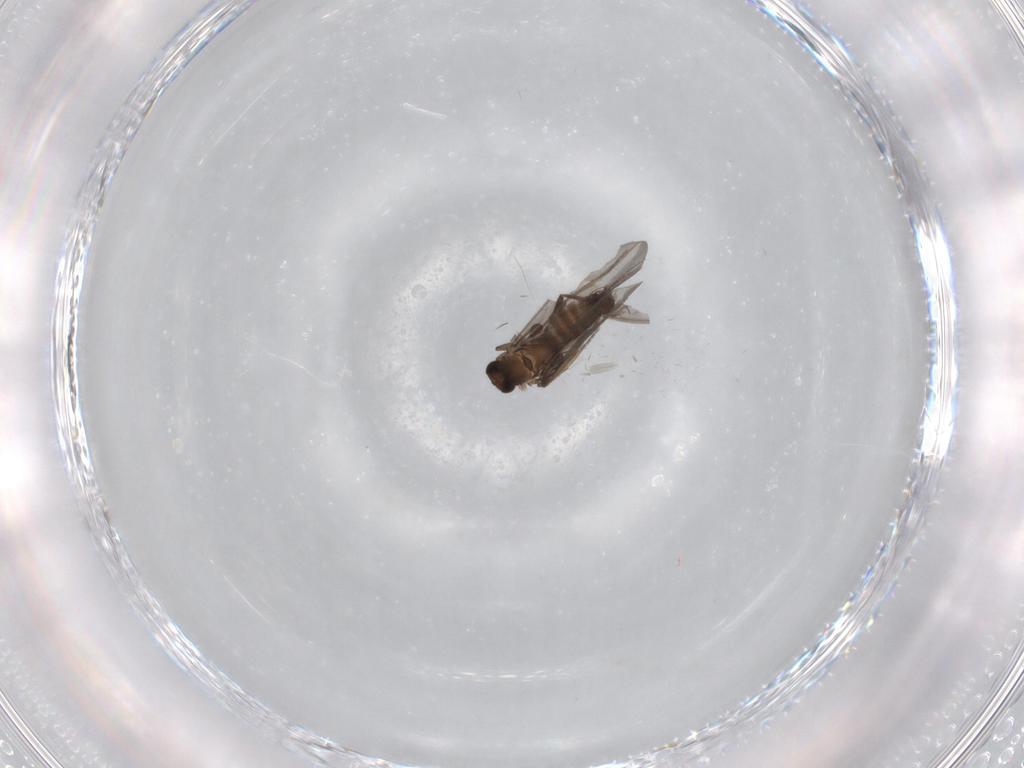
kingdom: Animalia
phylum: Arthropoda
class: Insecta
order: Diptera
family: Phoridae
